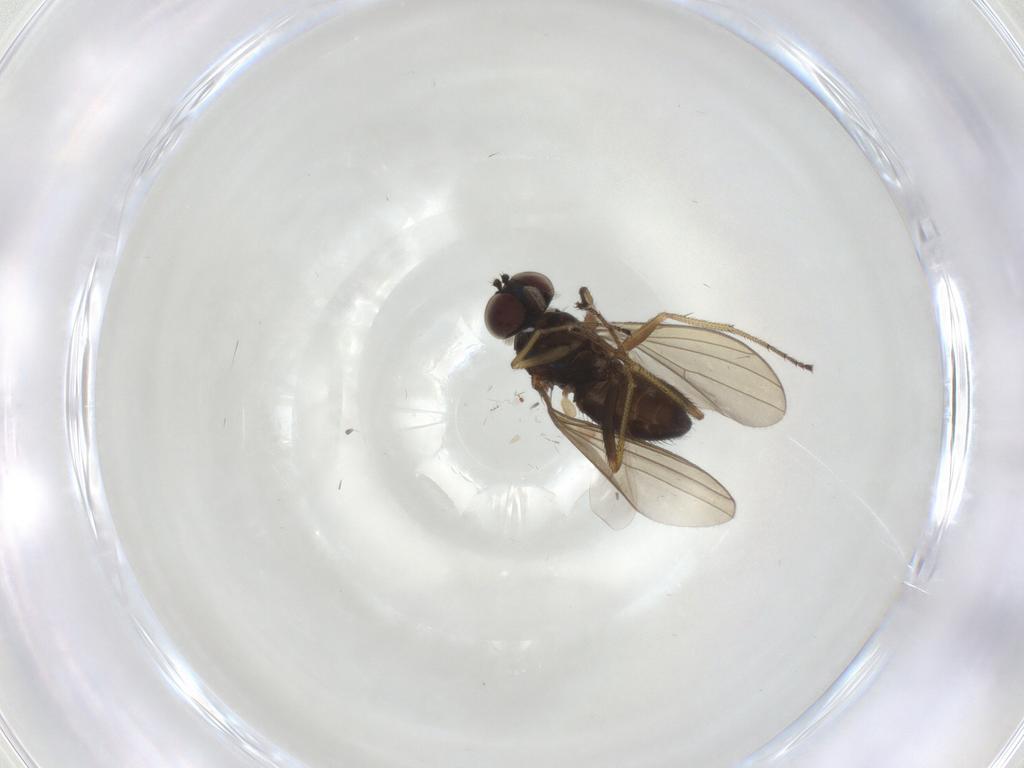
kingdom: Animalia
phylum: Arthropoda
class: Insecta
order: Diptera
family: Dolichopodidae
